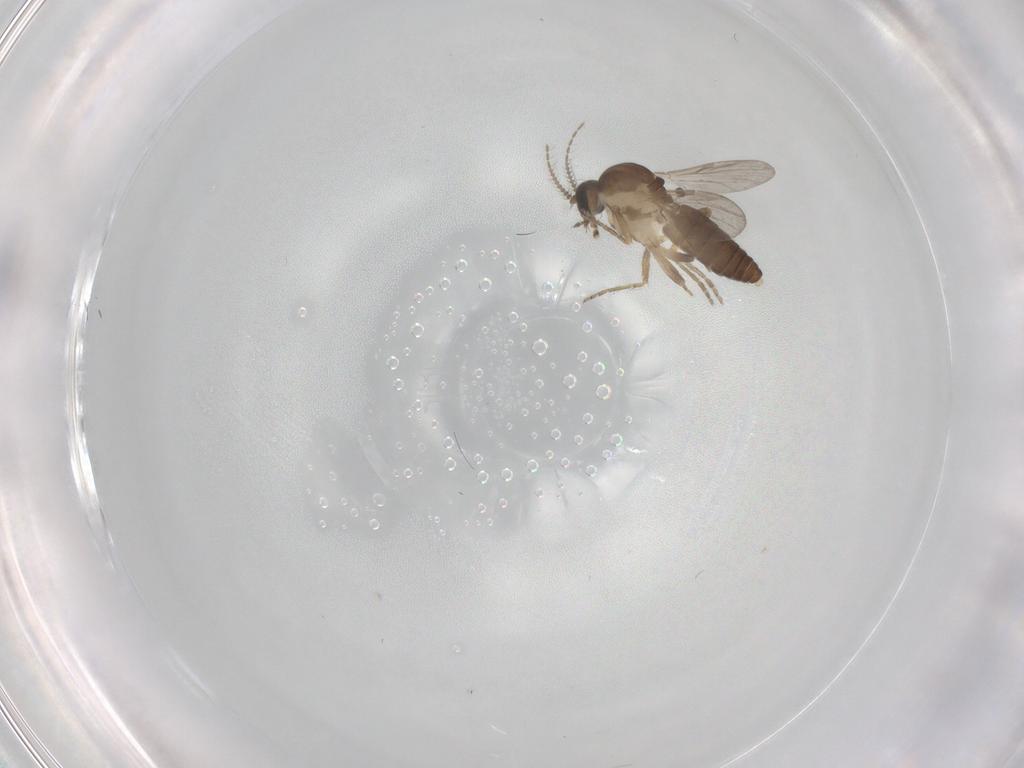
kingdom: Animalia
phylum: Arthropoda
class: Insecta
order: Diptera
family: Ceratopogonidae
